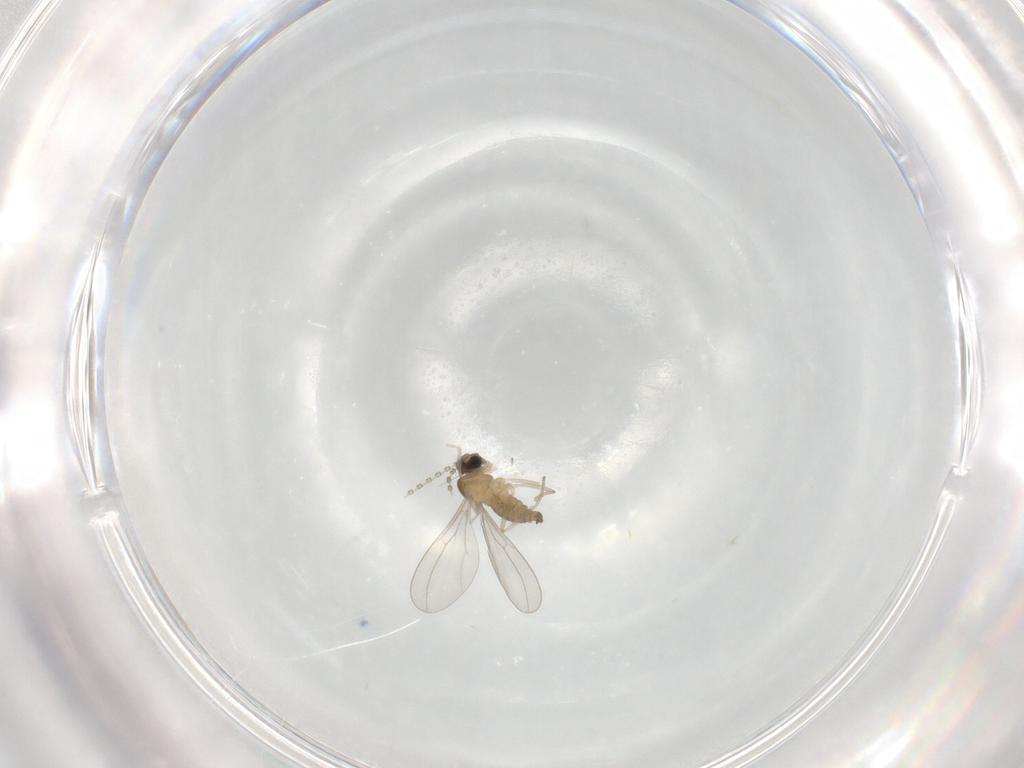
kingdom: Animalia
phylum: Arthropoda
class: Insecta
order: Diptera
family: Cecidomyiidae
